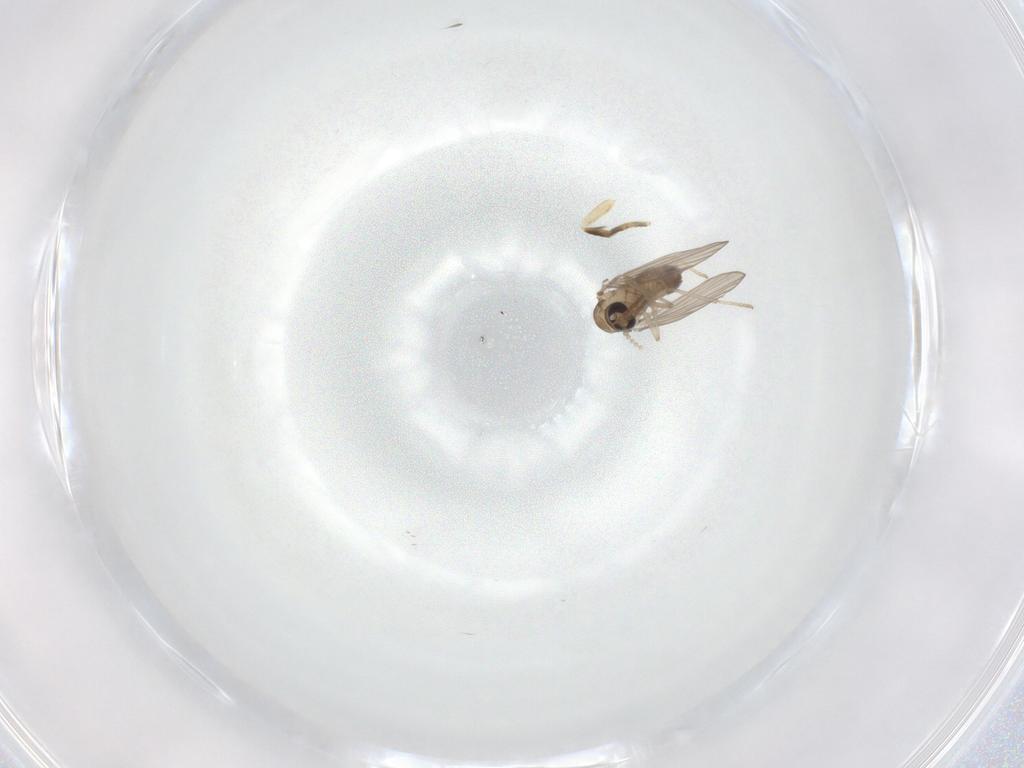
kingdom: Animalia
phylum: Arthropoda
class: Insecta
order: Diptera
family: Psychodidae
